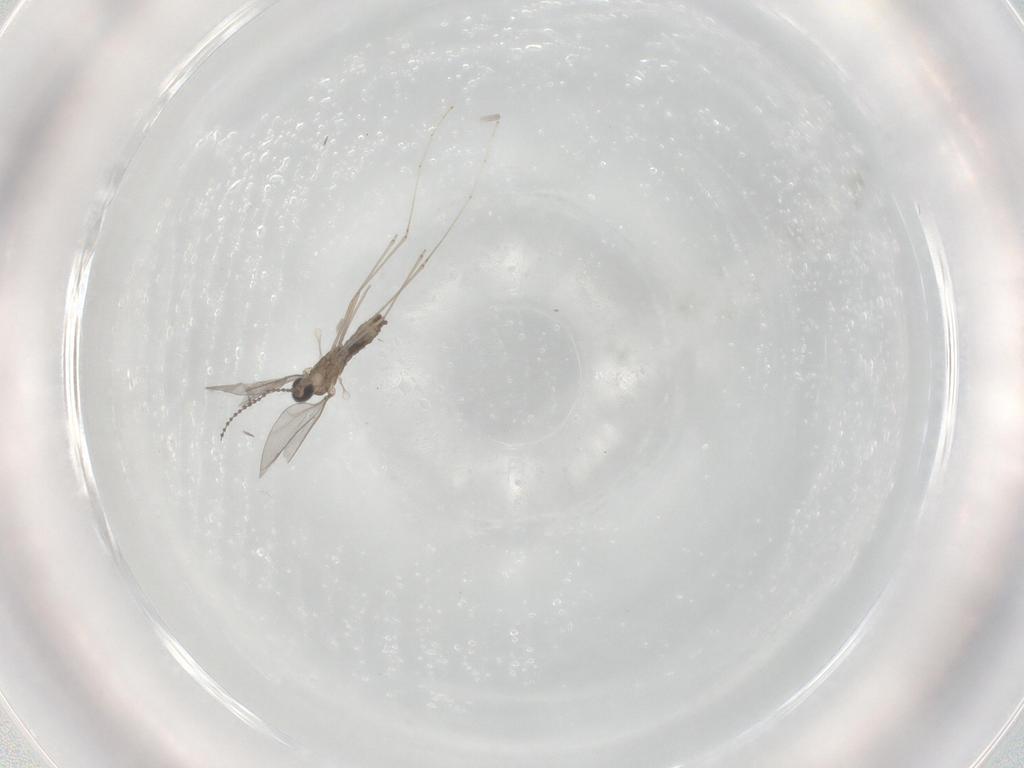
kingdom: Animalia
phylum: Arthropoda
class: Insecta
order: Diptera
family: Cecidomyiidae
